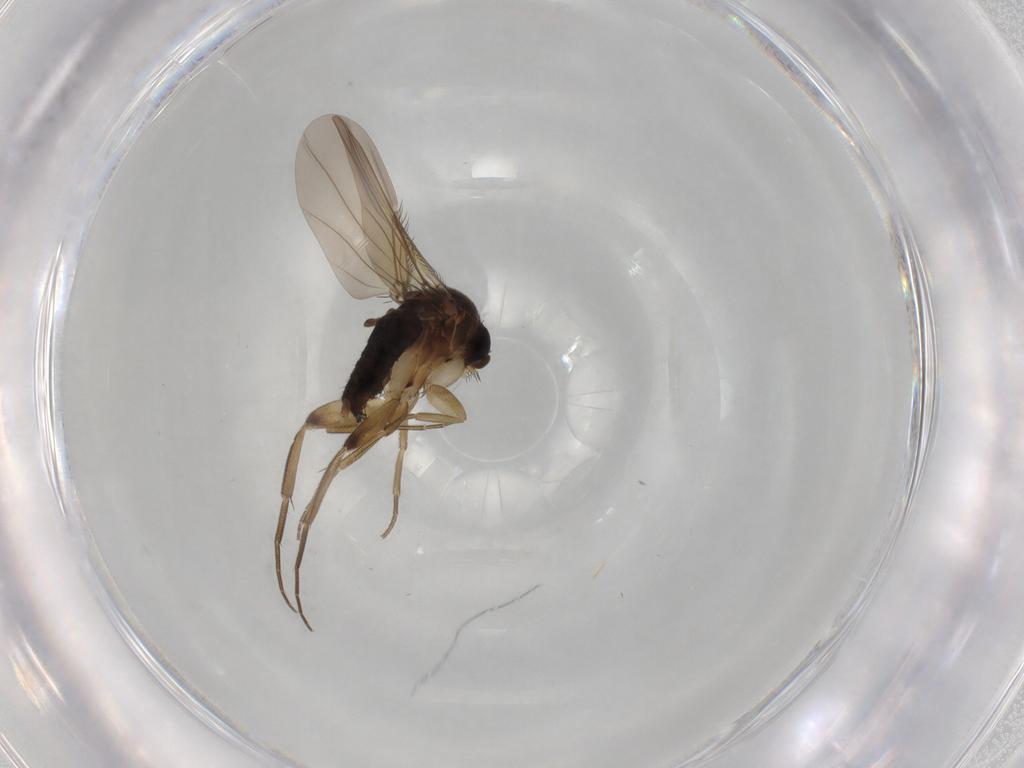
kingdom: Animalia
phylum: Arthropoda
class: Insecta
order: Diptera
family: Phoridae
